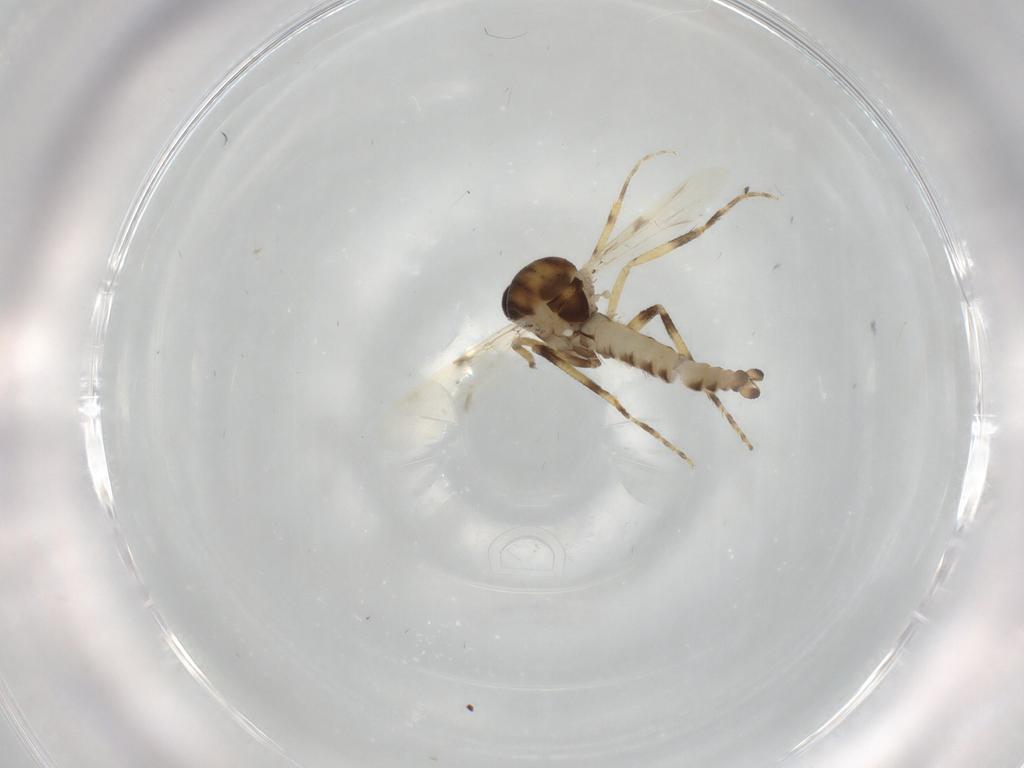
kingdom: Animalia
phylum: Arthropoda
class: Insecta
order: Diptera
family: Ceratopogonidae
